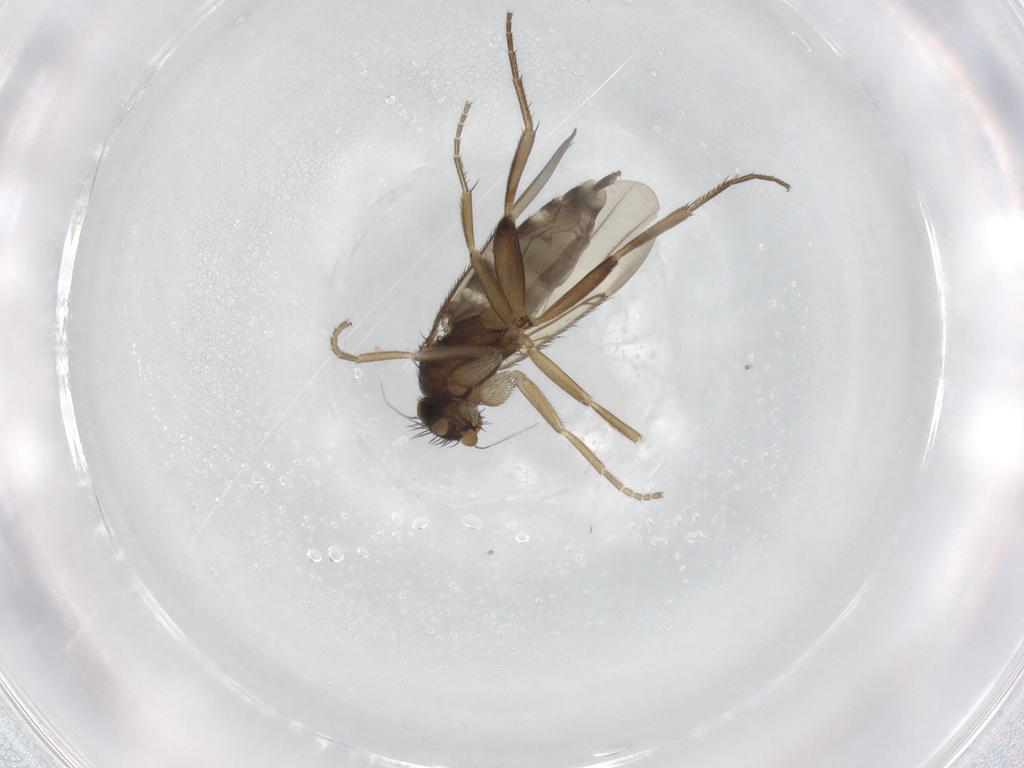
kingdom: Animalia
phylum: Arthropoda
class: Insecta
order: Diptera
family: Phoridae
